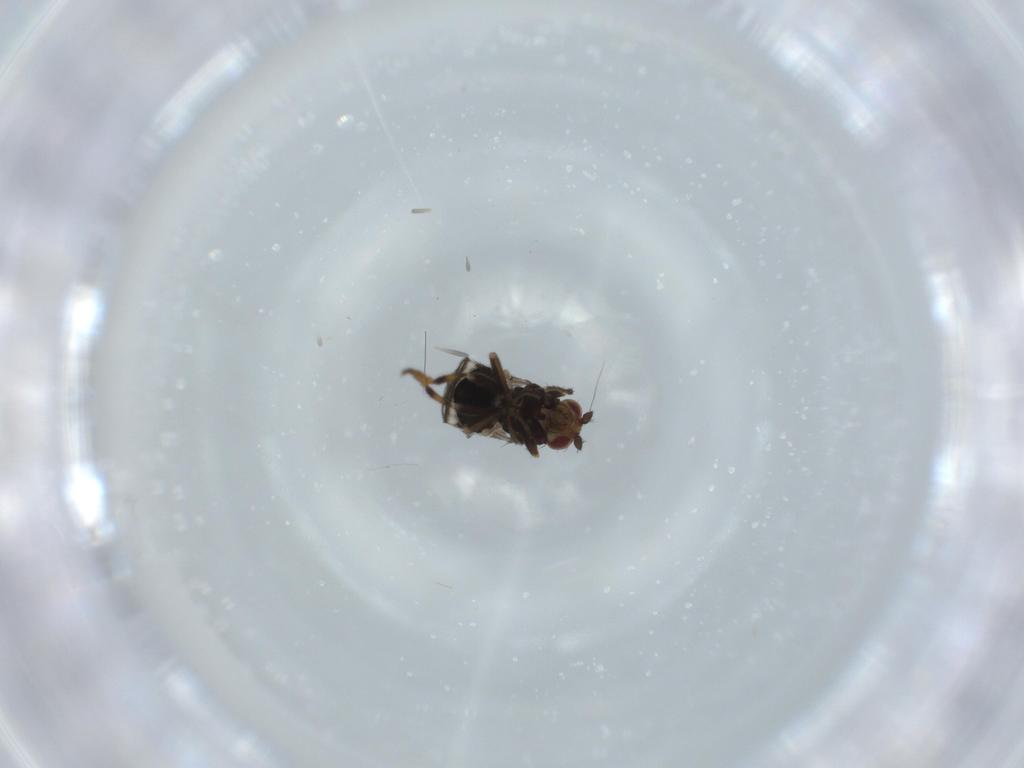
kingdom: Animalia
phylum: Arthropoda
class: Insecta
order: Diptera
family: Sphaeroceridae
